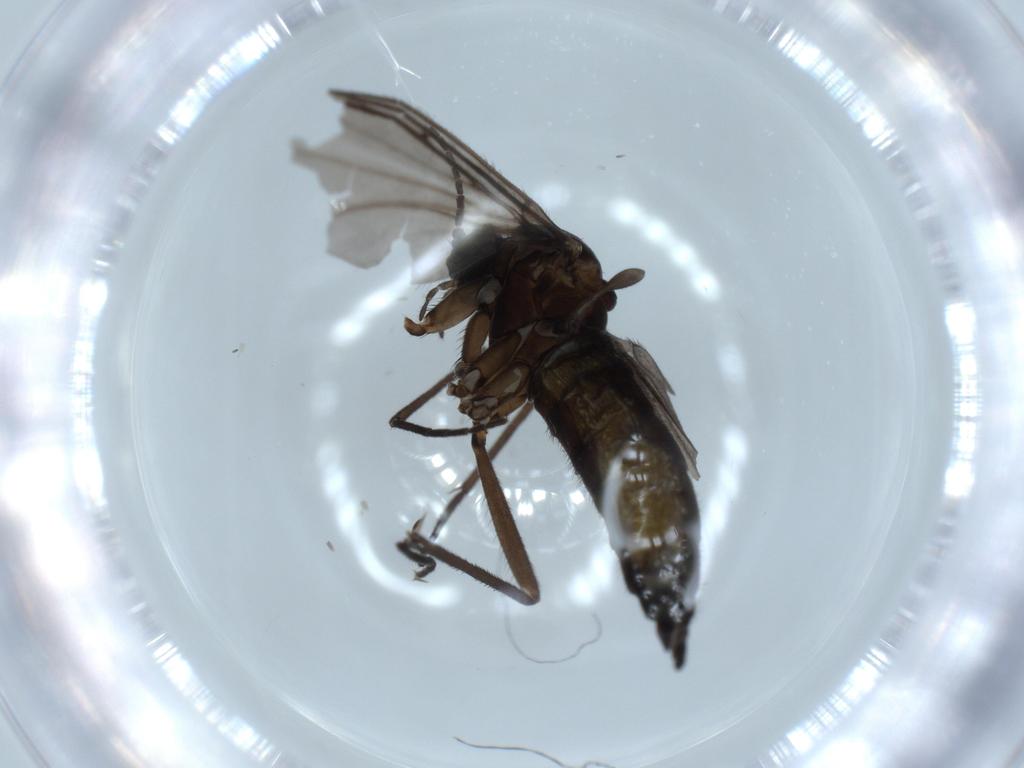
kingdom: Animalia
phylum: Arthropoda
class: Insecta
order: Diptera
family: Sciaridae
